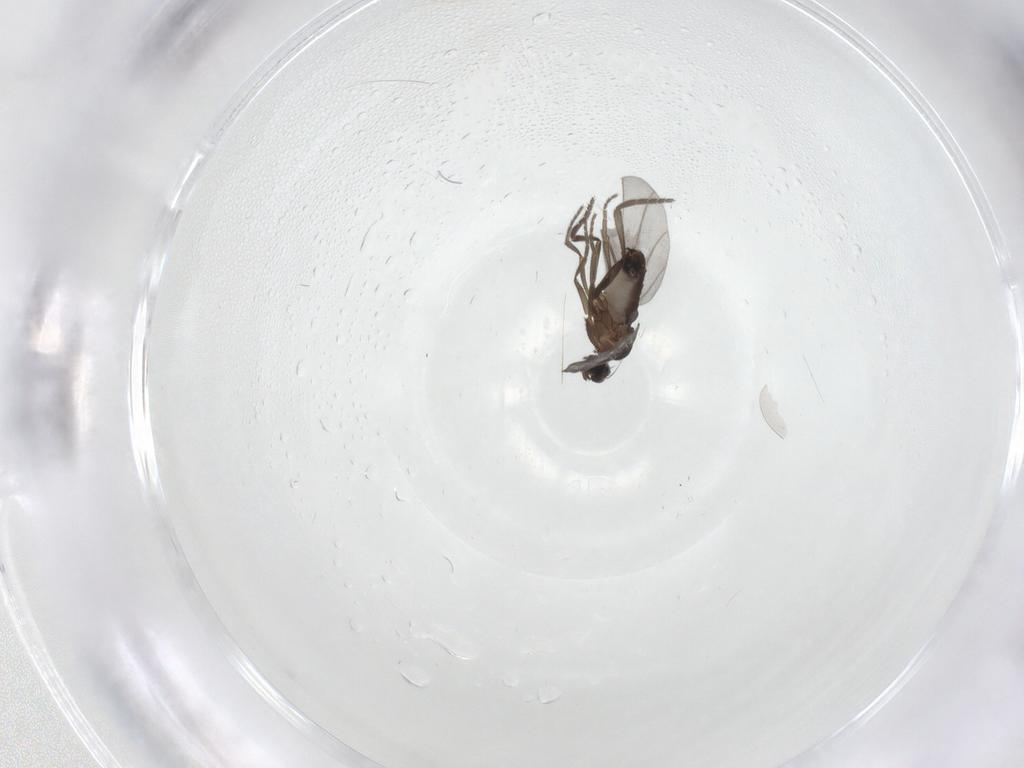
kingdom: Animalia
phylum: Arthropoda
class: Insecta
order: Diptera
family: Phoridae
